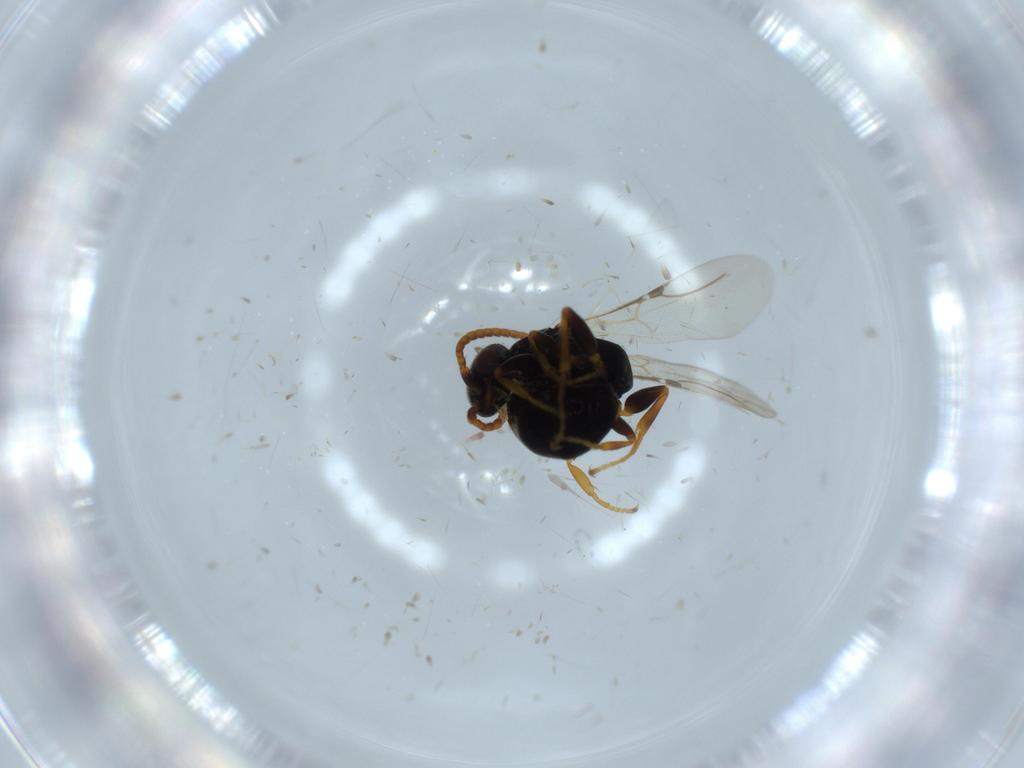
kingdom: Animalia
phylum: Arthropoda
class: Insecta
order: Hymenoptera
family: Bethylidae
